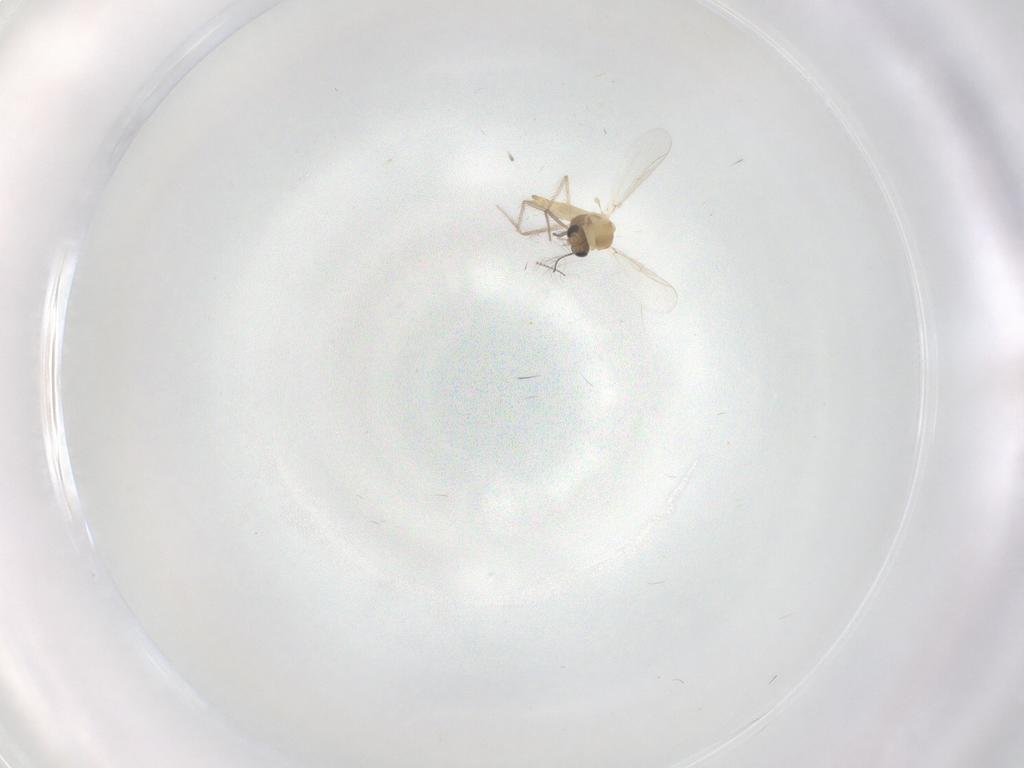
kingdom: Animalia
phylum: Arthropoda
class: Insecta
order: Diptera
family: Chironomidae
